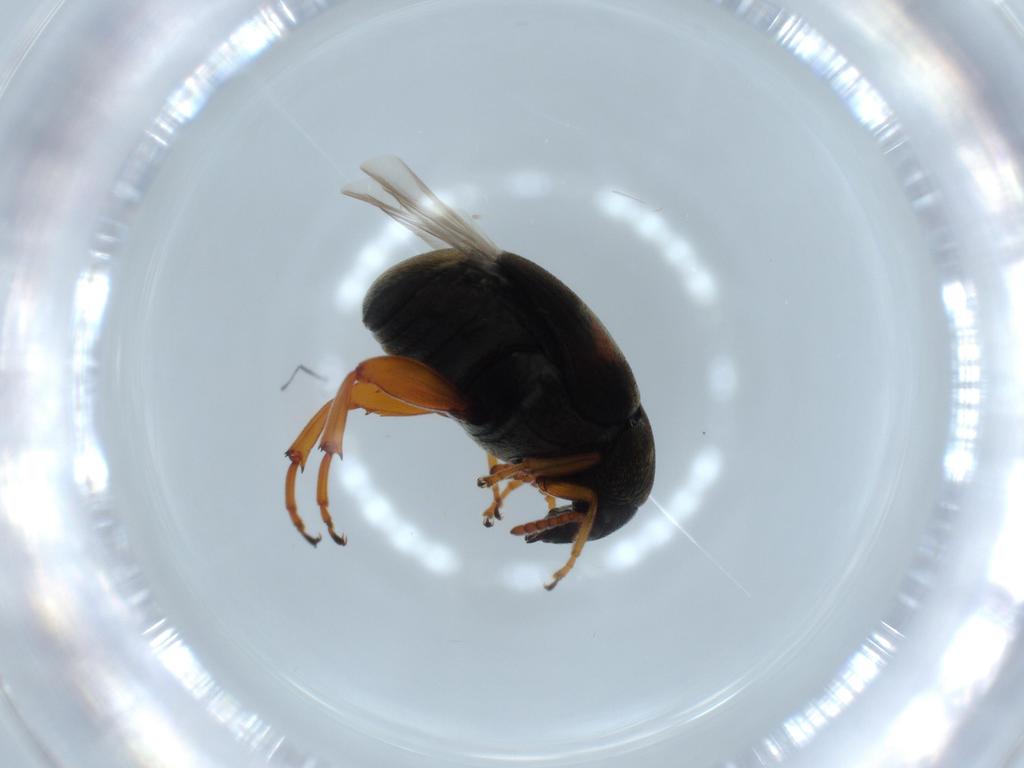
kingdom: Animalia
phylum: Arthropoda
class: Insecta
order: Coleoptera
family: Chrysomelidae
